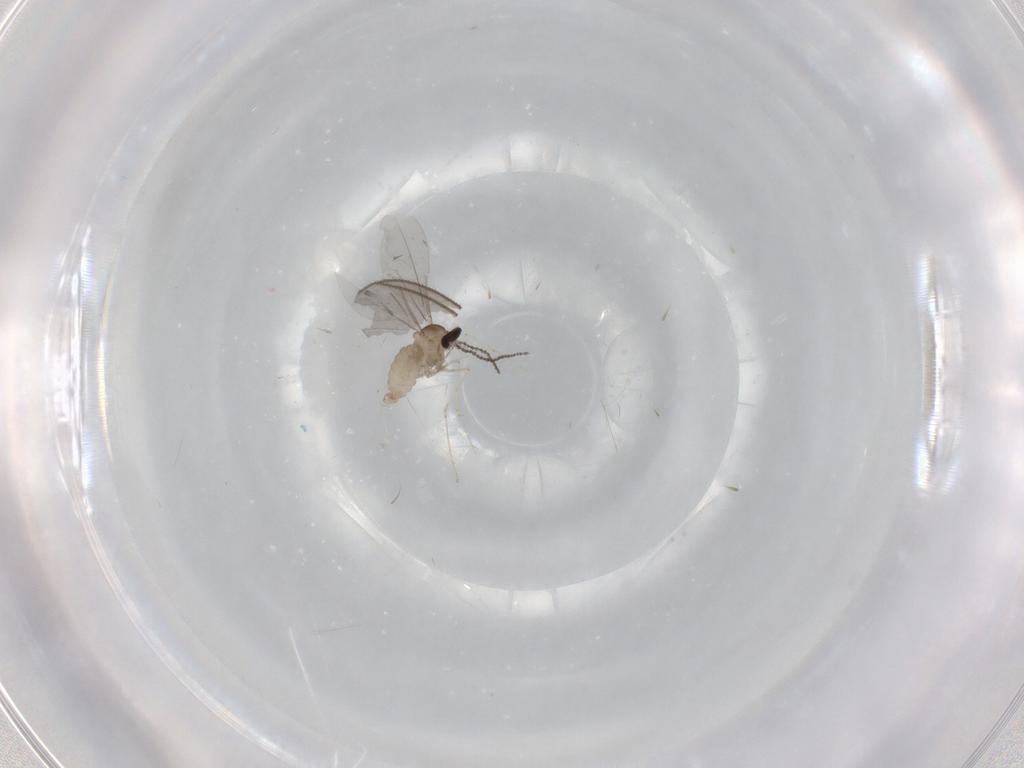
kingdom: Animalia
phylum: Arthropoda
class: Insecta
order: Diptera
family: Cecidomyiidae
